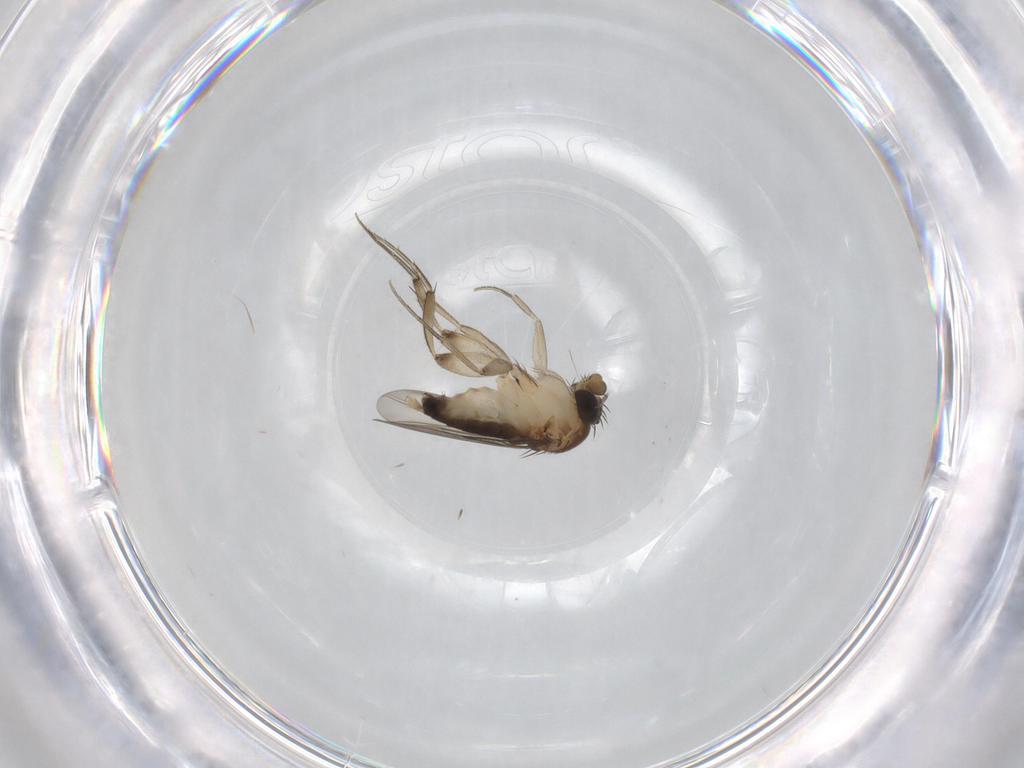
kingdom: Animalia
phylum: Arthropoda
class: Insecta
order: Diptera
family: Phoridae
